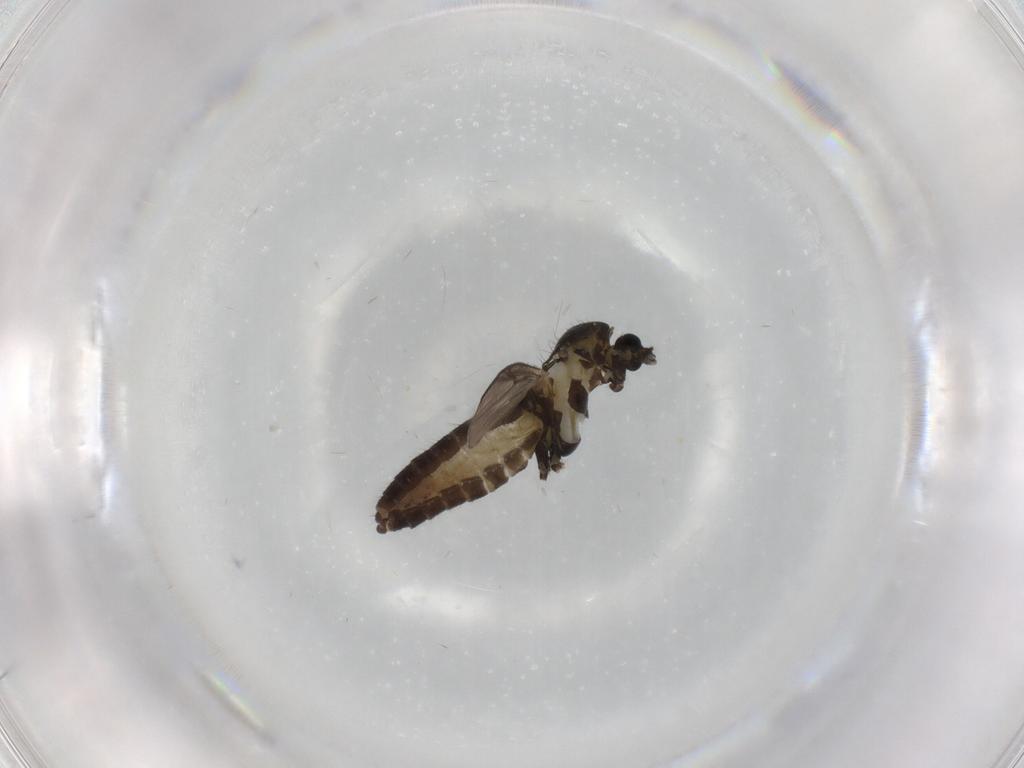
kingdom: Animalia
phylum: Arthropoda
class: Insecta
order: Diptera
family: Chironomidae
